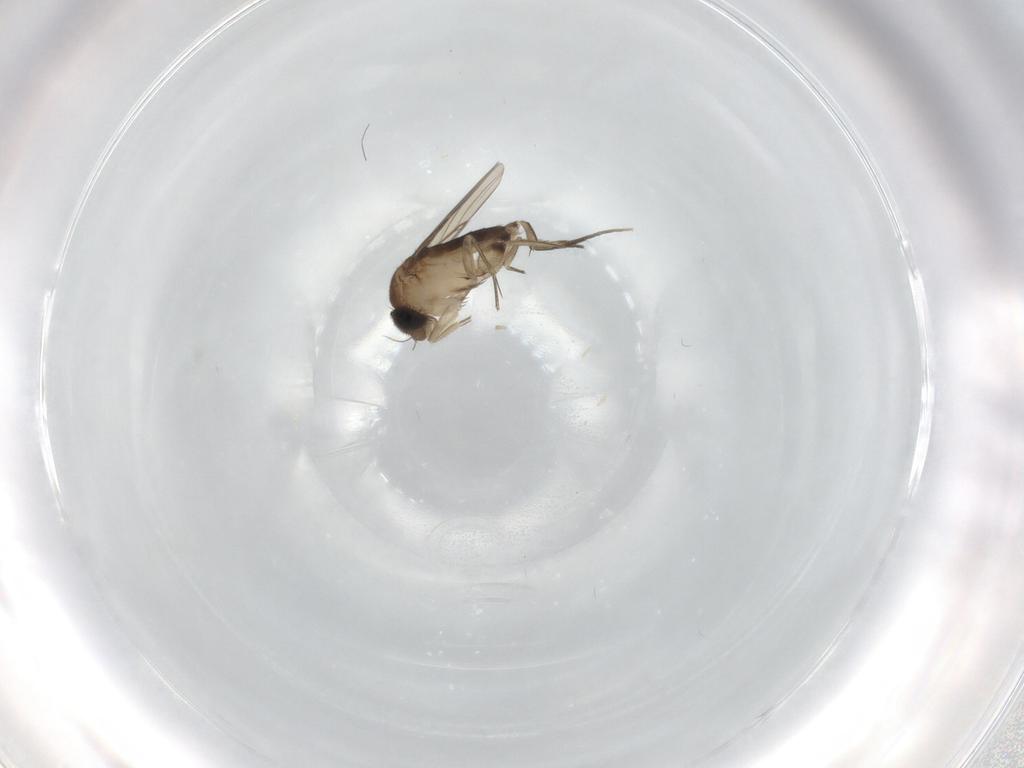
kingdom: Animalia
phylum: Arthropoda
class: Insecta
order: Diptera
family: Phoridae
